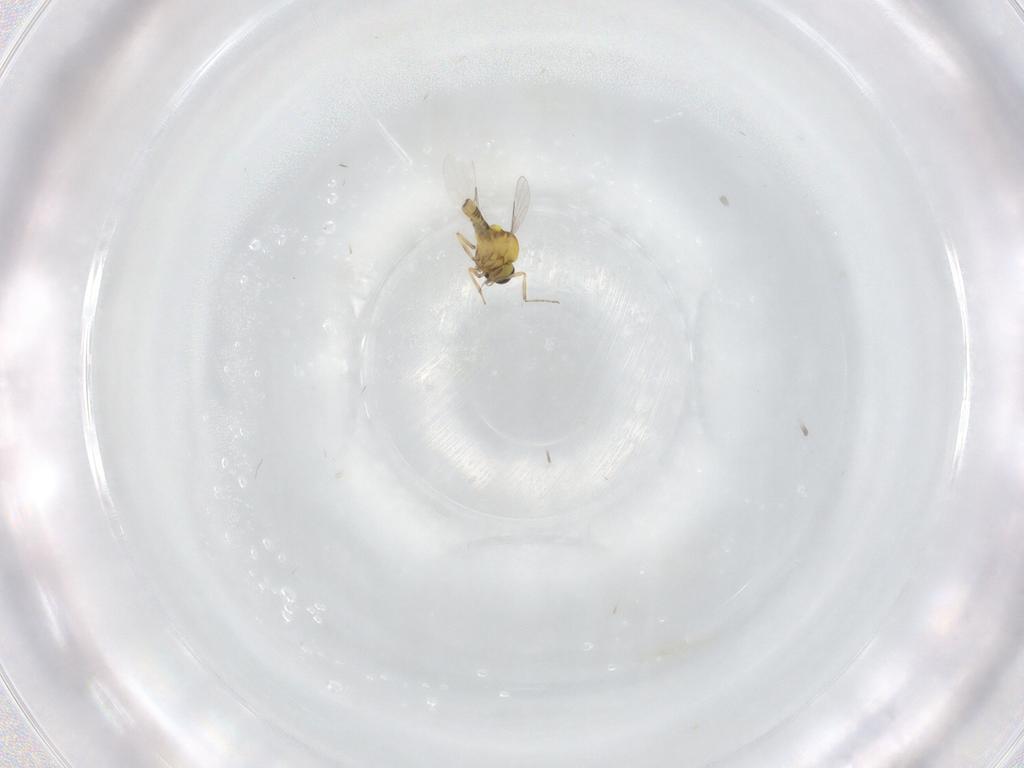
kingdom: Animalia
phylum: Arthropoda
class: Insecta
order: Diptera
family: Ceratopogonidae
